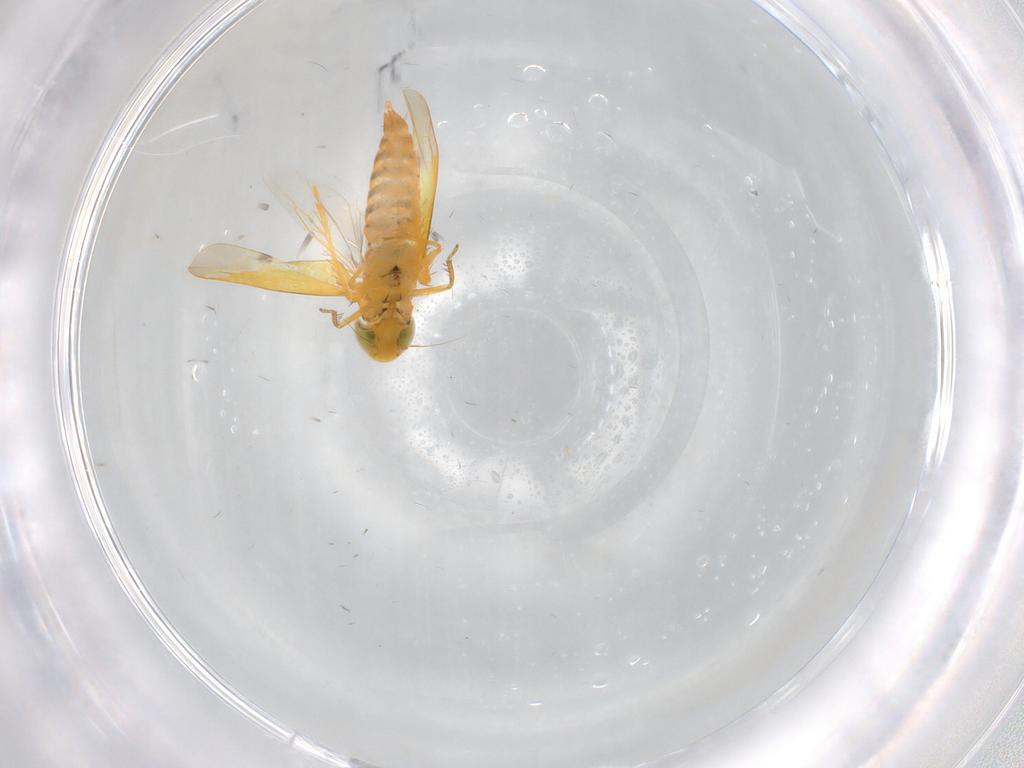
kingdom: Animalia
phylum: Arthropoda
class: Insecta
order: Hemiptera
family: Cicadellidae
